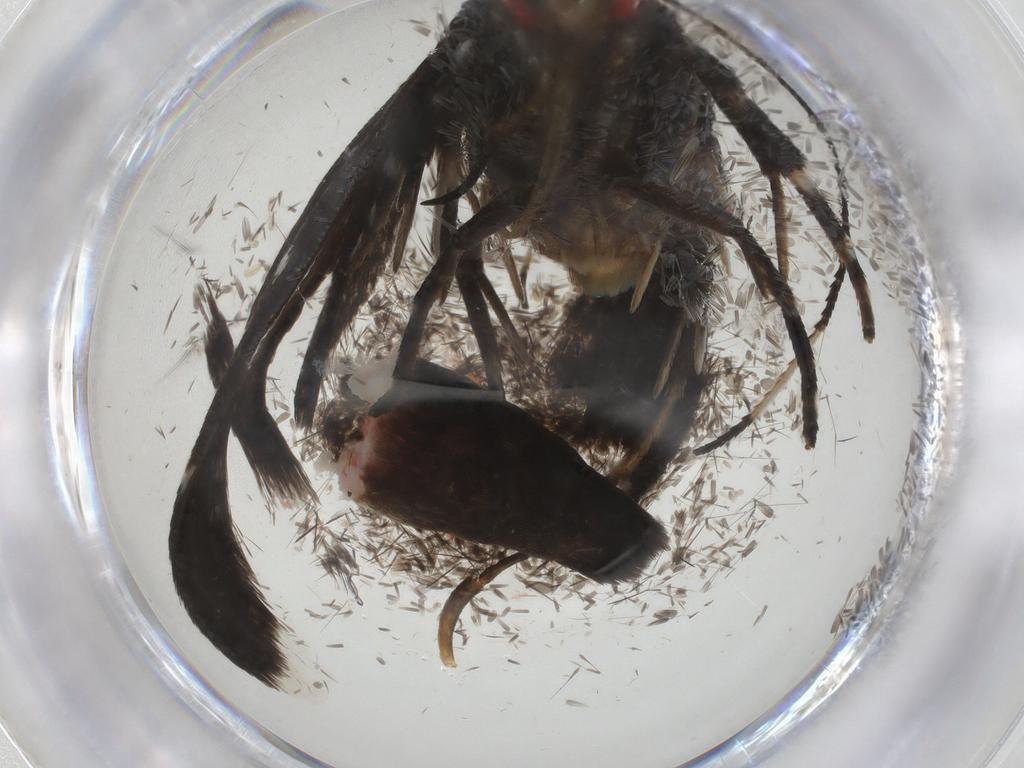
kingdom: Animalia
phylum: Arthropoda
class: Insecta
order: Lepidoptera
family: Gelechiidae
